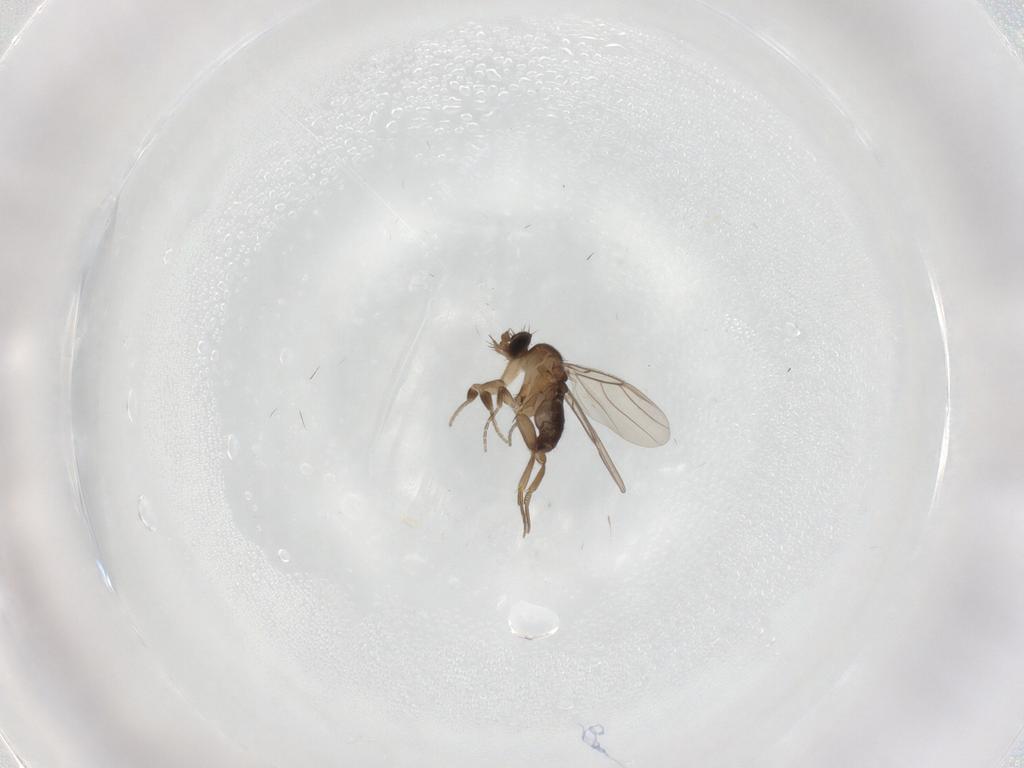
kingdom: Animalia
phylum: Arthropoda
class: Insecta
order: Diptera
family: Phoridae
